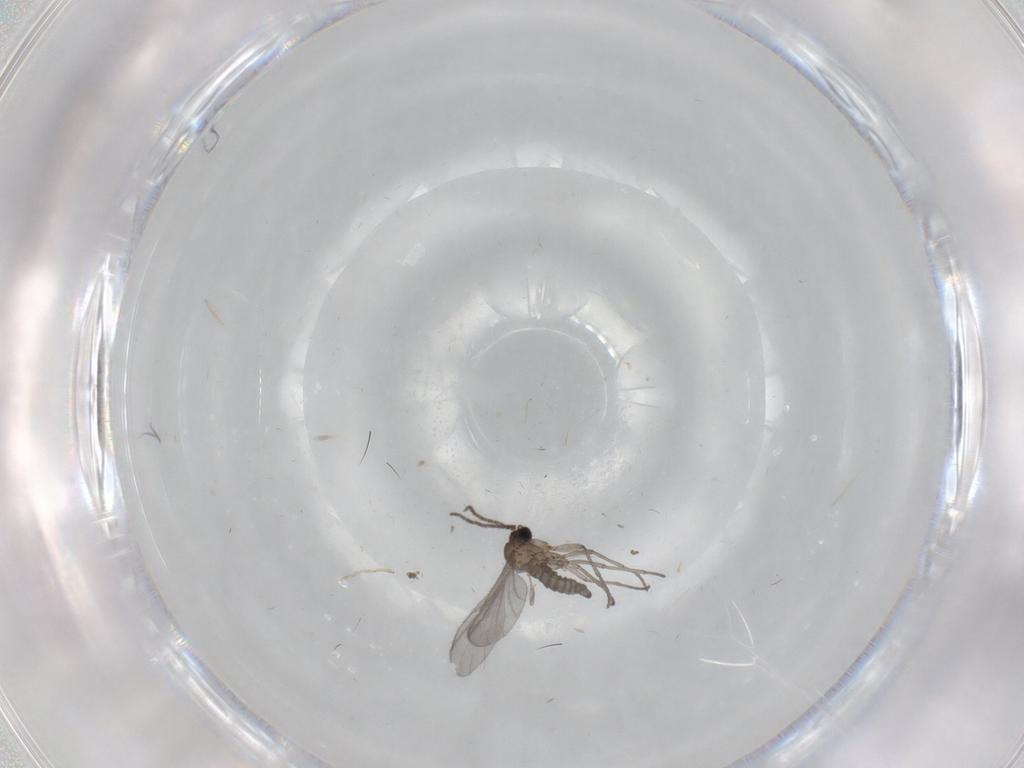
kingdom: Animalia
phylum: Arthropoda
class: Insecta
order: Diptera
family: Sciaridae
